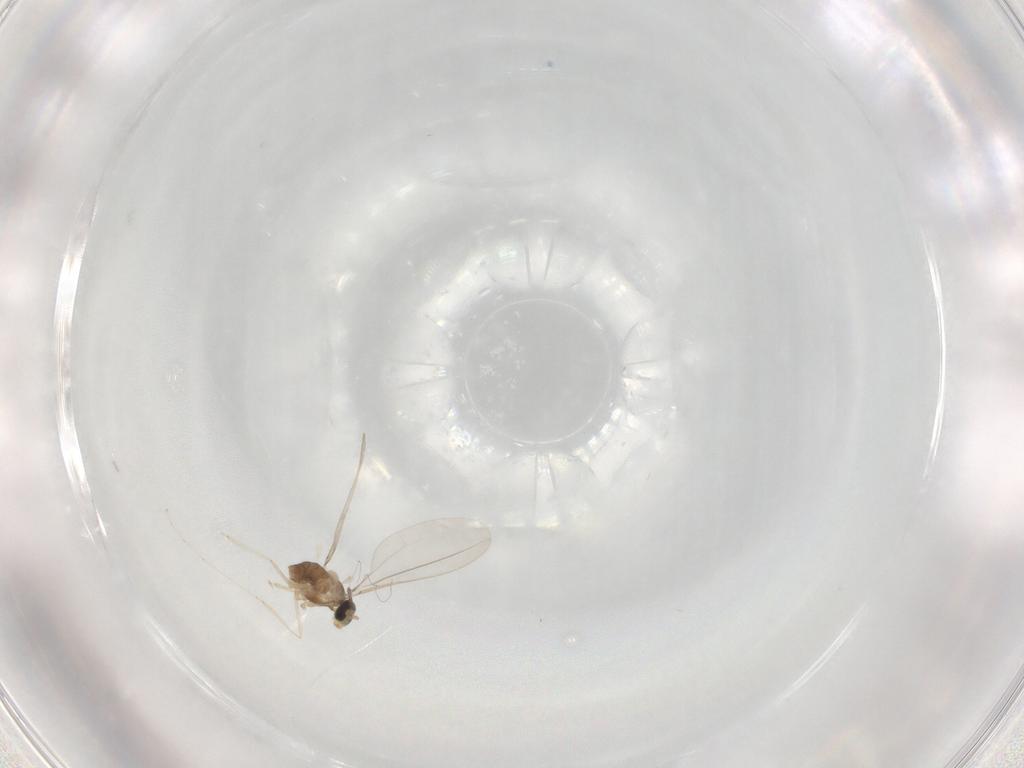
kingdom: Animalia
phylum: Arthropoda
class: Insecta
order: Diptera
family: Cecidomyiidae
